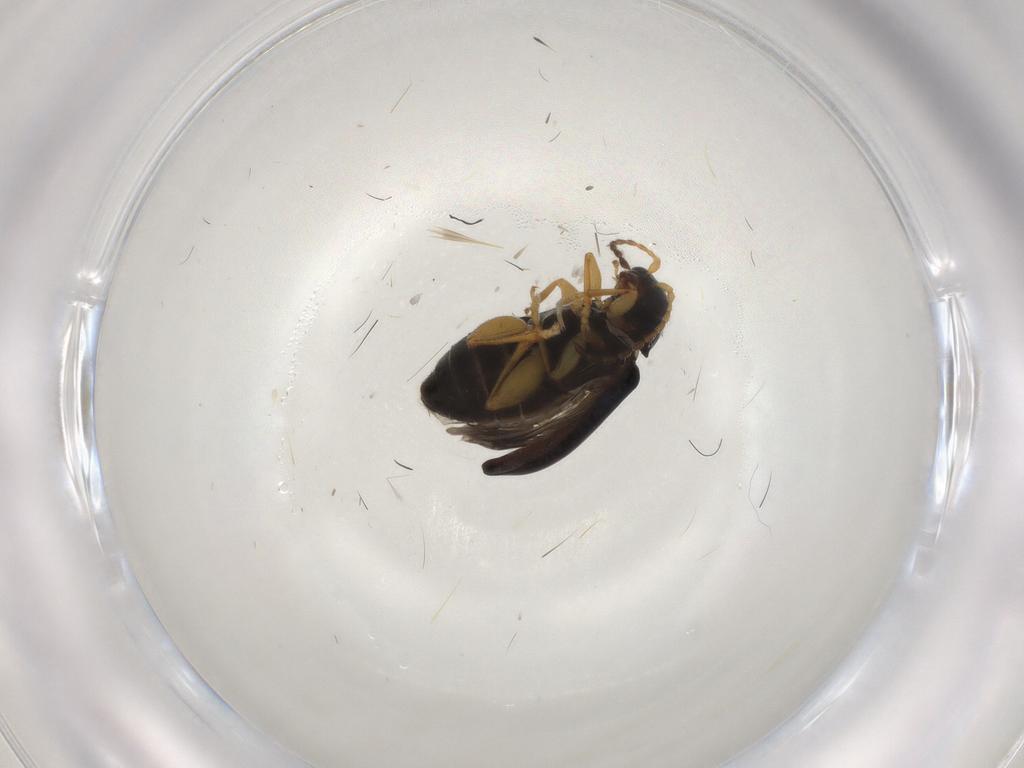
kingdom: Animalia
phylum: Arthropoda
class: Insecta
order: Coleoptera
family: Chrysomelidae
